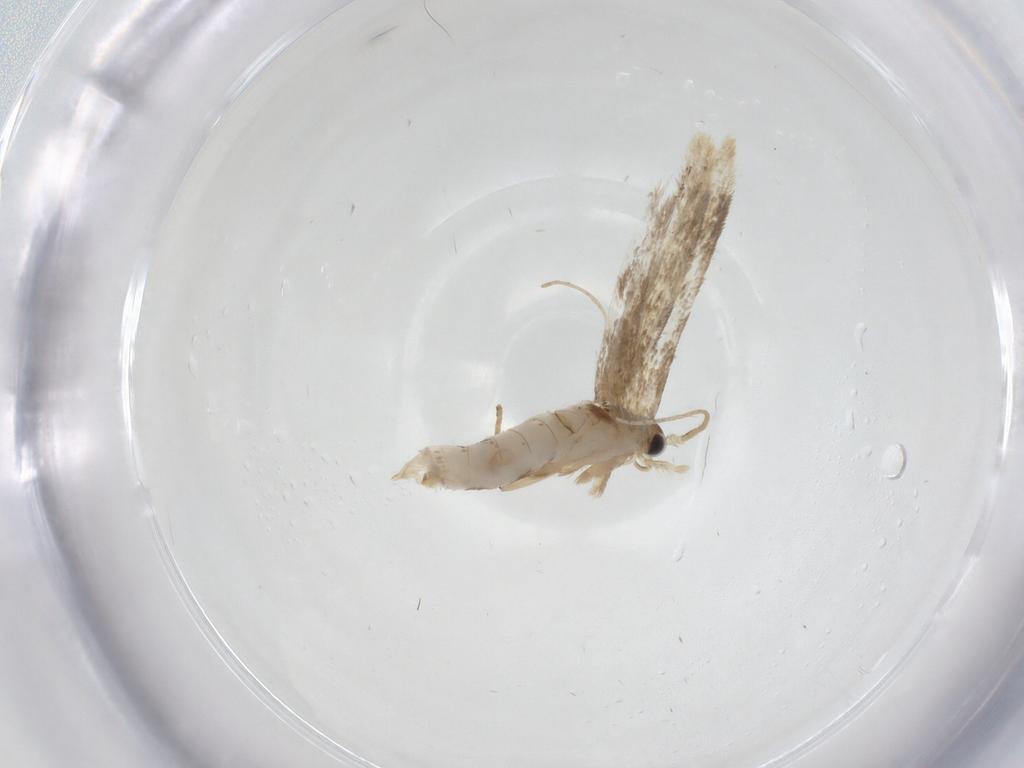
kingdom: Animalia
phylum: Arthropoda
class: Insecta
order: Lepidoptera
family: Dryadaulidae
